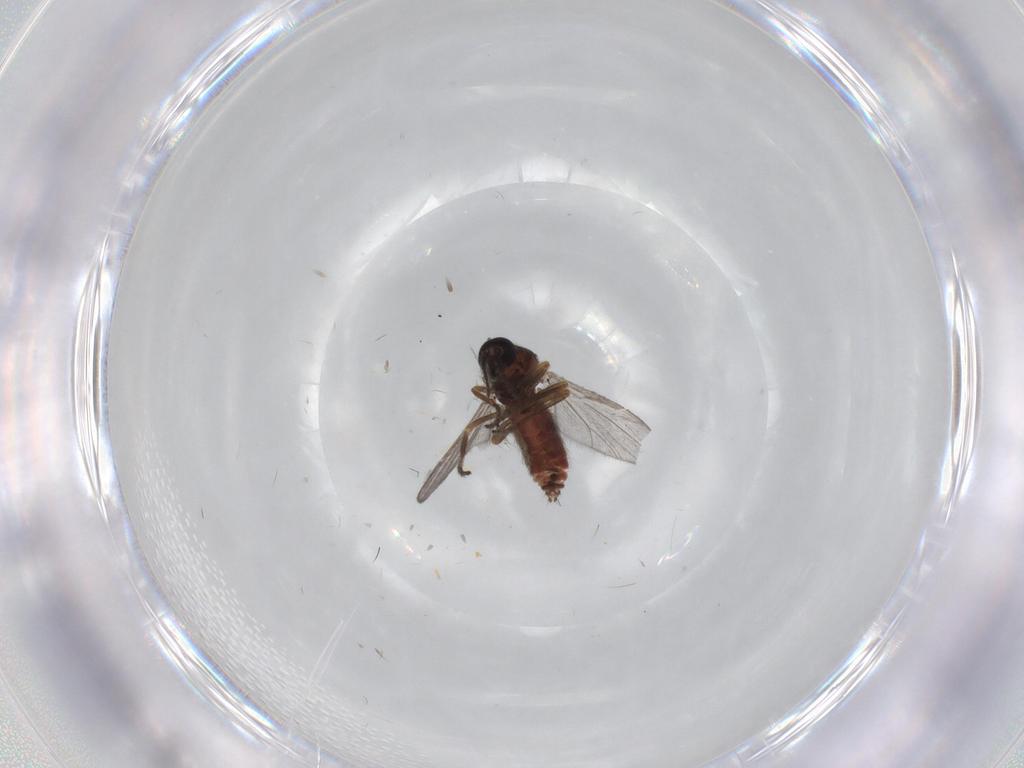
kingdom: Animalia
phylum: Arthropoda
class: Insecta
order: Diptera
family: Ceratopogonidae
